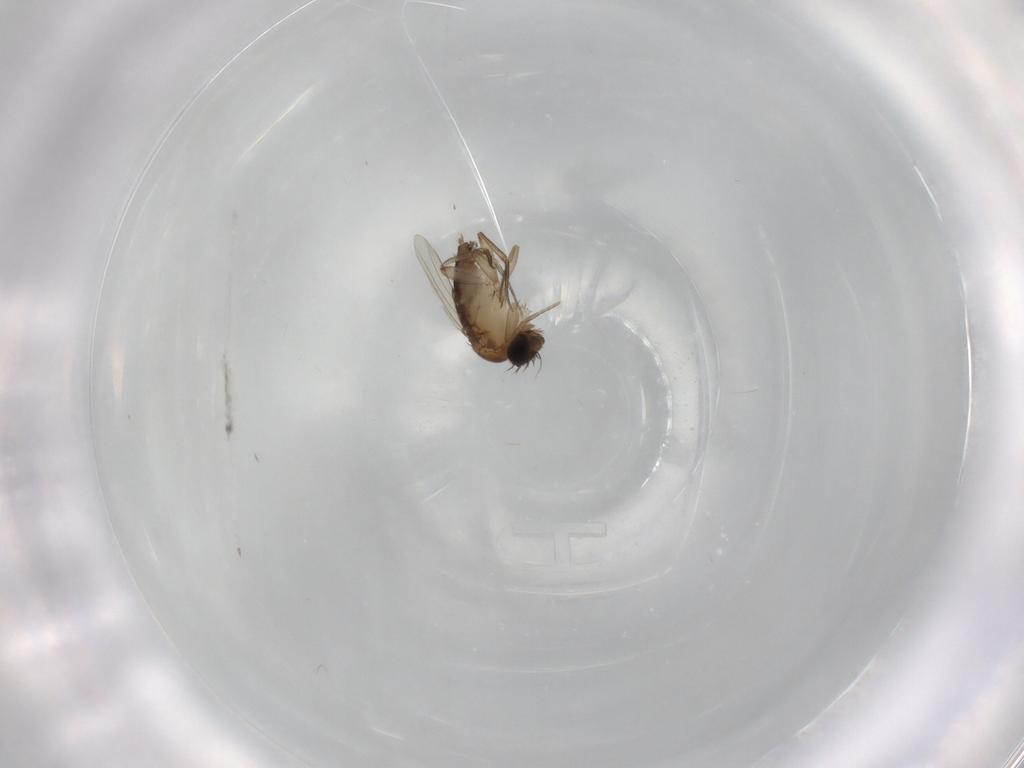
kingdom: Animalia
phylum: Arthropoda
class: Insecta
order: Diptera
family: Phoridae
